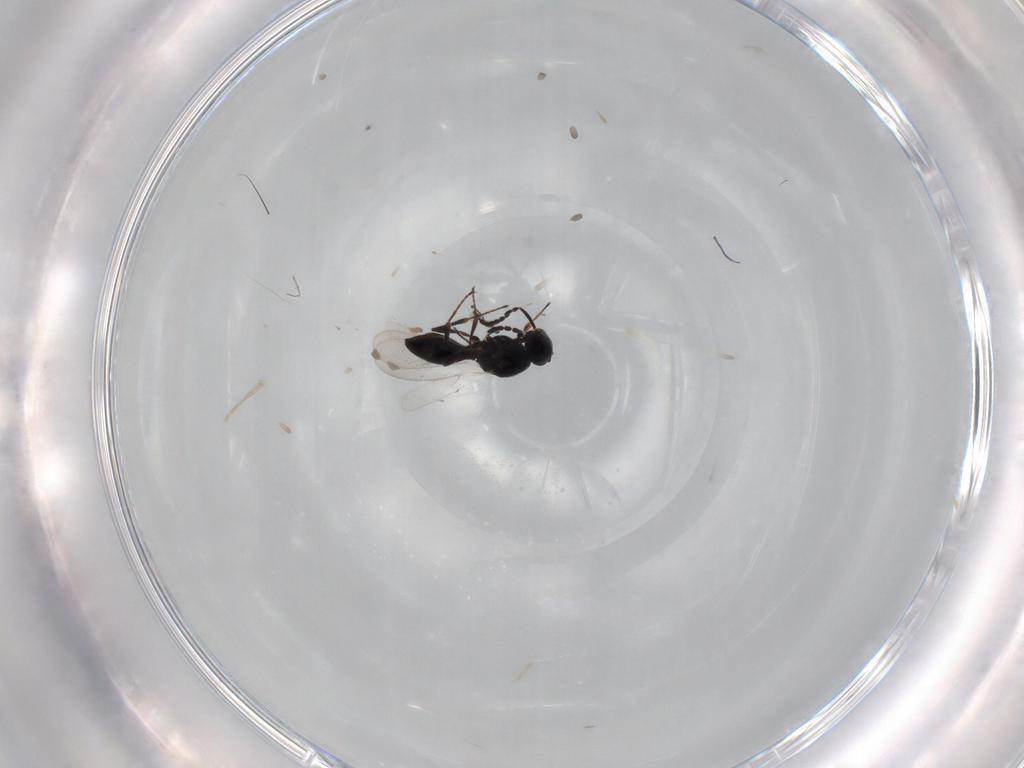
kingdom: Animalia
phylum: Arthropoda
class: Insecta
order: Hymenoptera
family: Platygastridae
